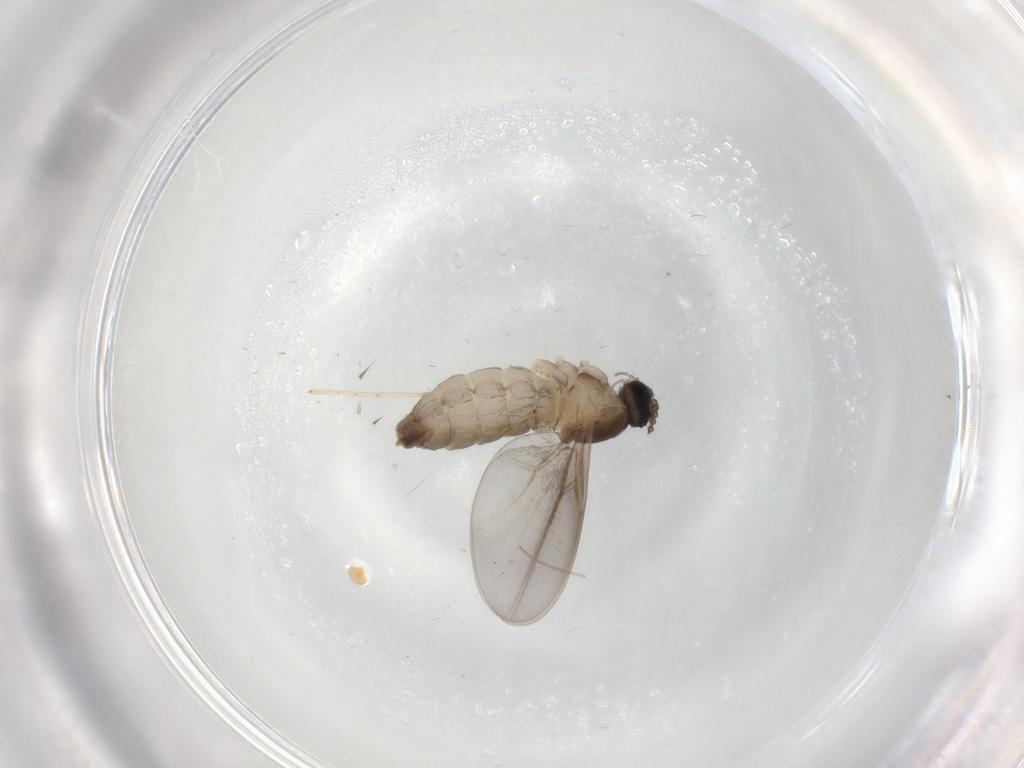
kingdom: Animalia
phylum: Arthropoda
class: Insecta
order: Diptera
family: Cecidomyiidae
